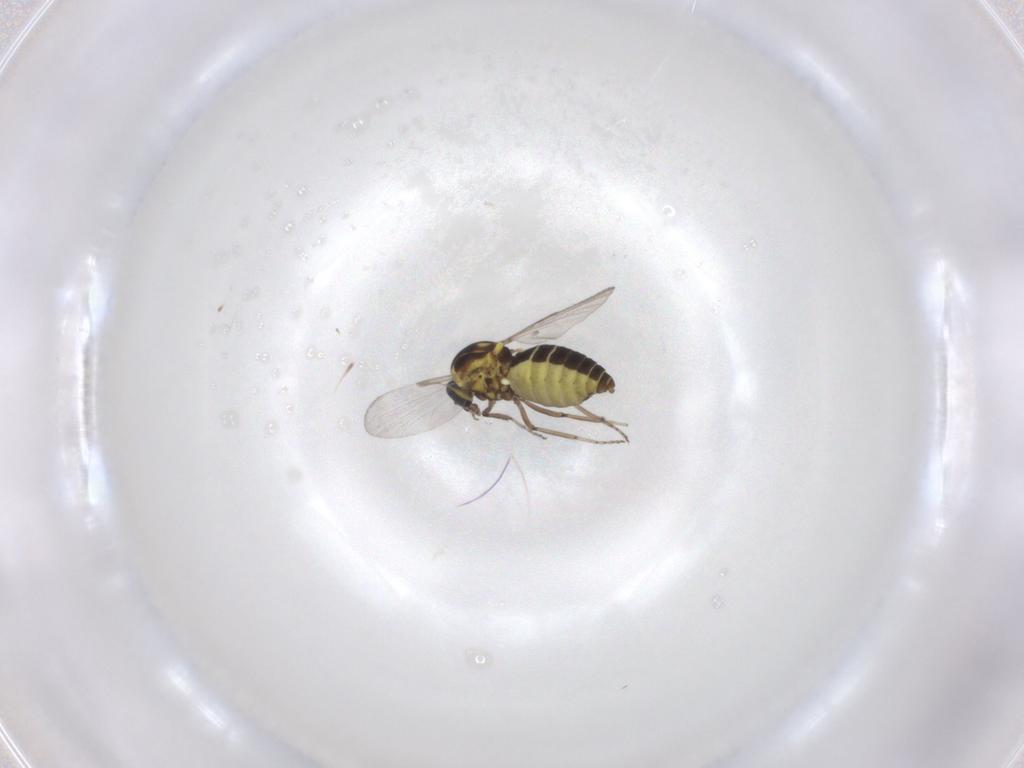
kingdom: Animalia
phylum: Arthropoda
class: Insecta
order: Diptera
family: Ceratopogonidae
